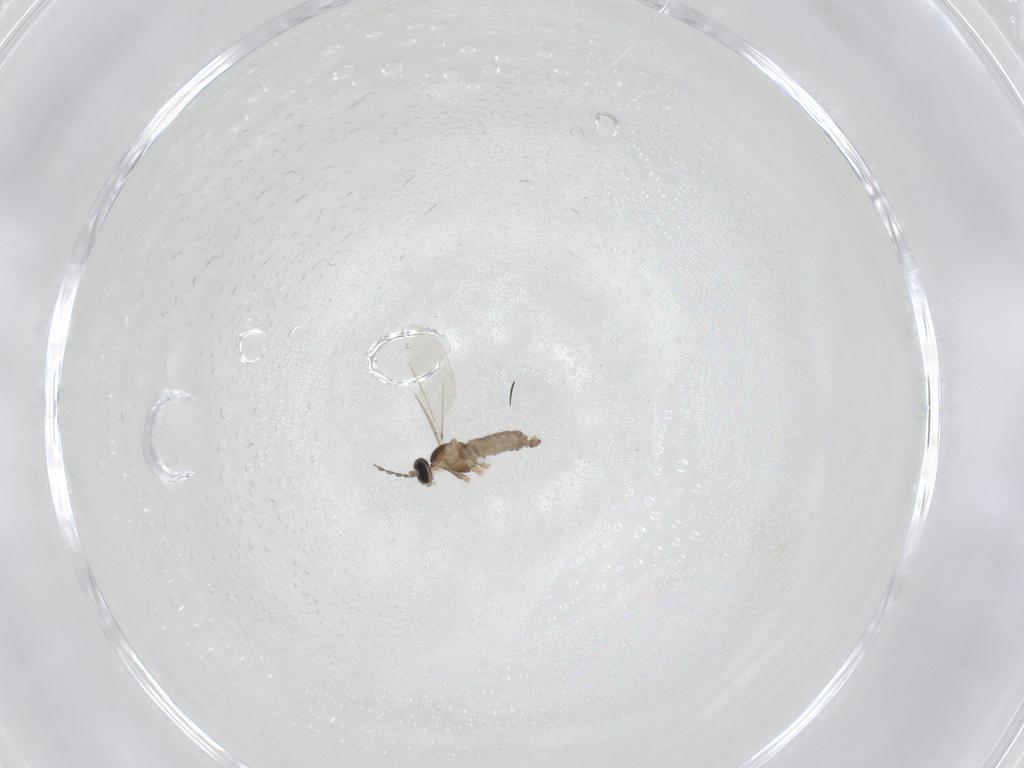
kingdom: Animalia
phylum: Arthropoda
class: Insecta
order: Diptera
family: Cecidomyiidae
